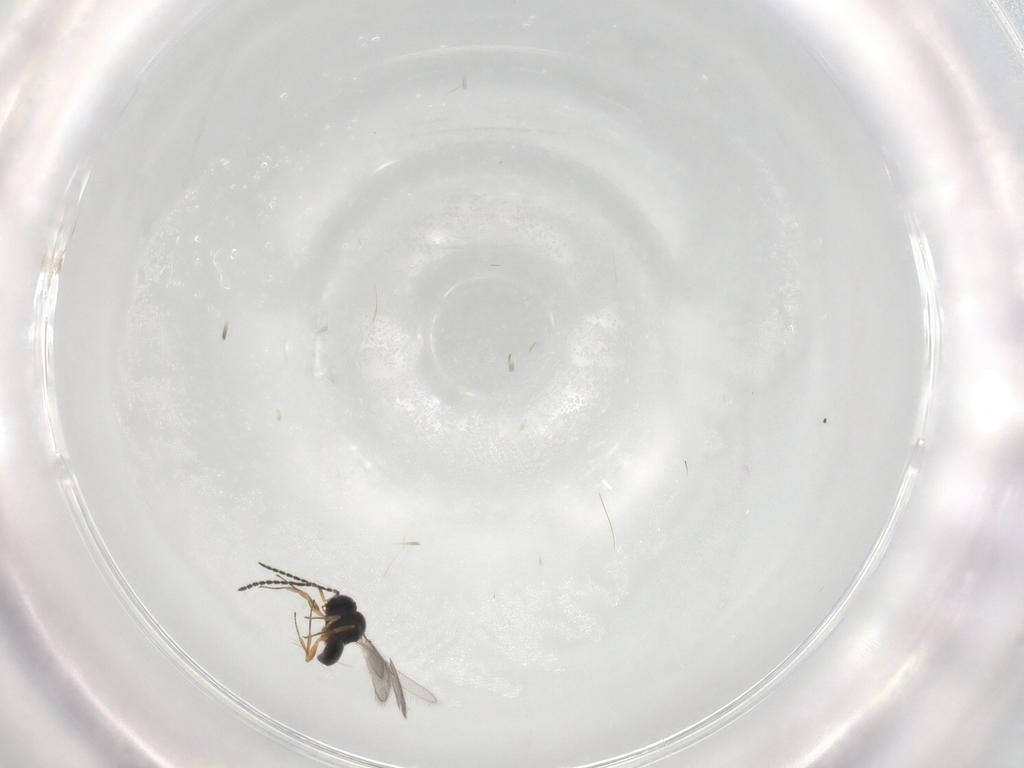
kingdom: Animalia
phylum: Arthropoda
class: Insecta
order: Hymenoptera
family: Scelionidae
